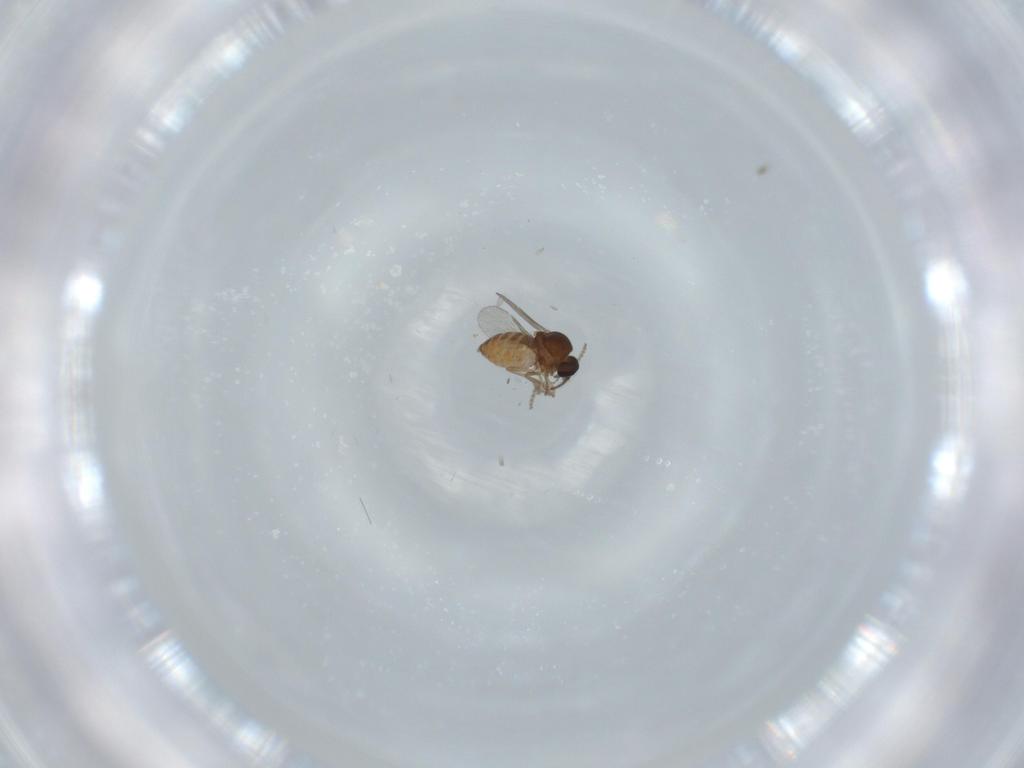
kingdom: Animalia
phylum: Arthropoda
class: Insecta
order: Diptera
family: Ceratopogonidae
